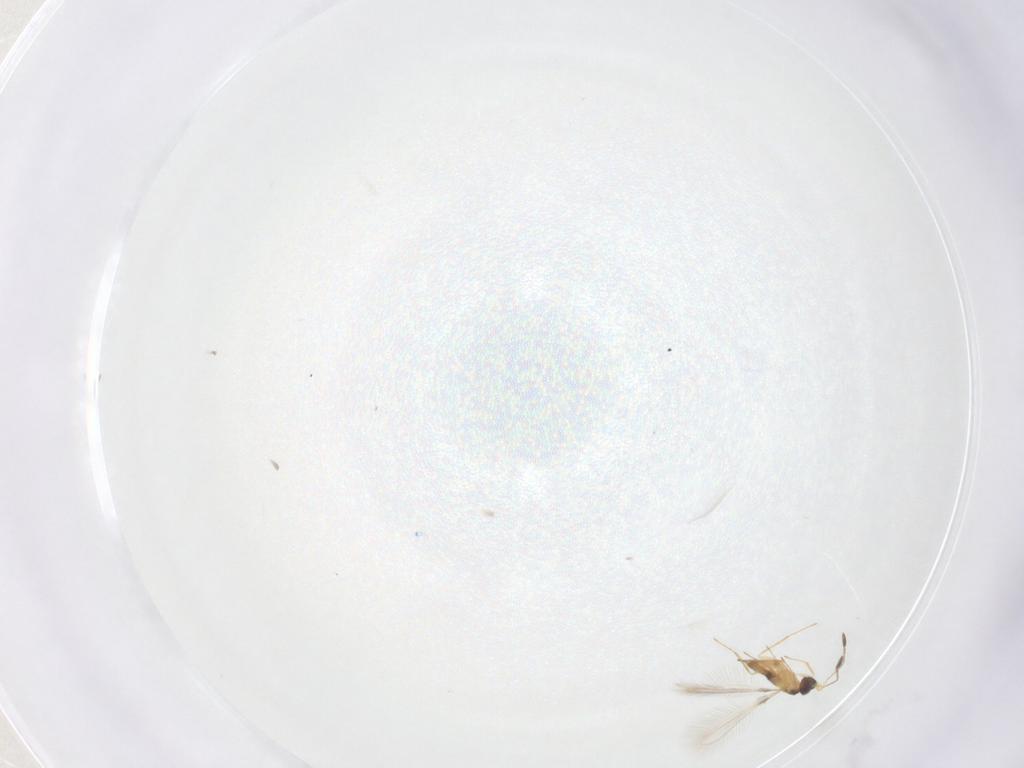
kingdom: Animalia
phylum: Arthropoda
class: Insecta
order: Hymenoptera
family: Mymaridae
